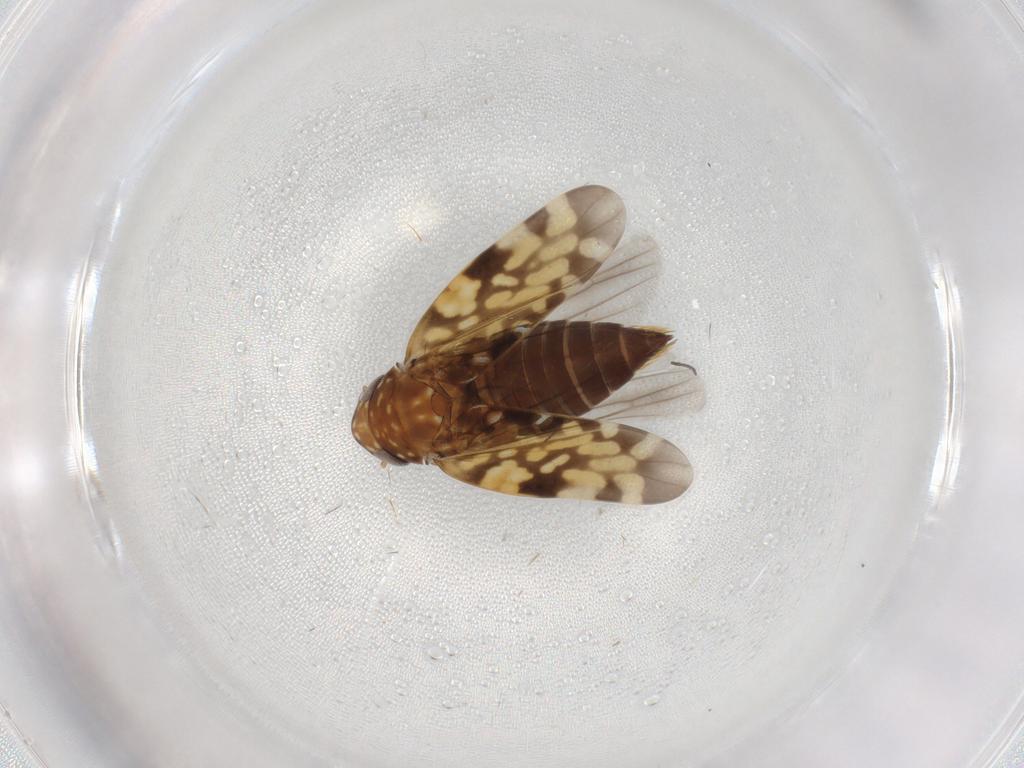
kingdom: Animalia
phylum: Arthropoda
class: Insecta
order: Hemiptera
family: Cicadellidae
